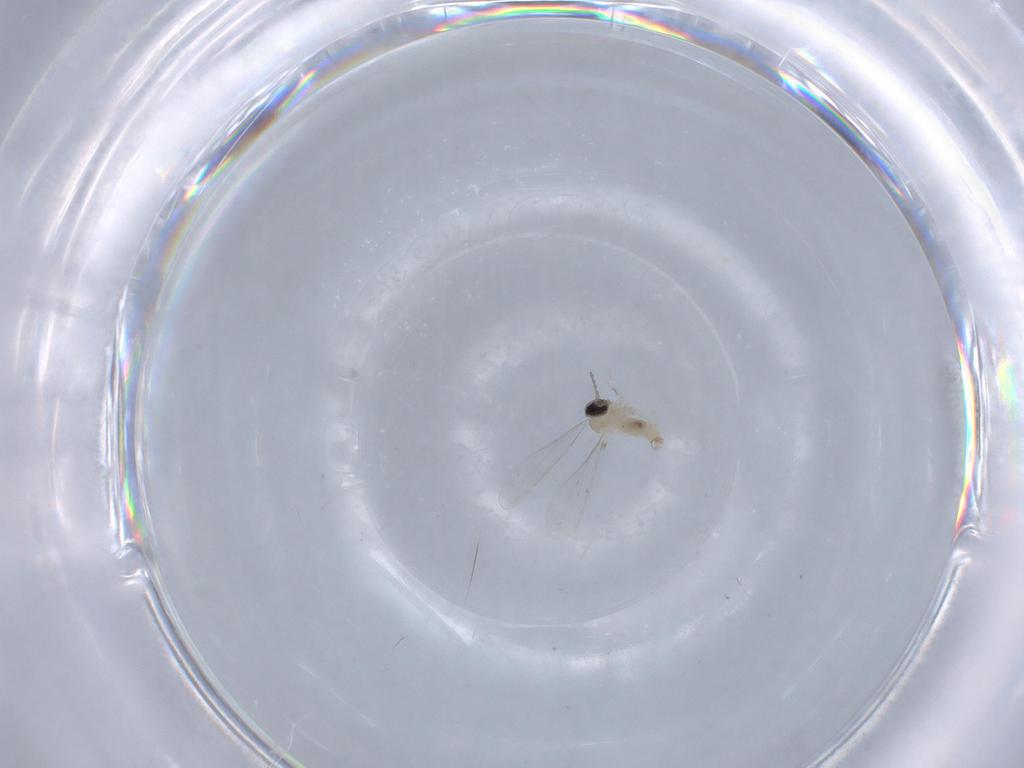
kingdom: Animalia
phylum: Arthropoda
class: Insecta
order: Diptera
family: Cecidomyiidae
